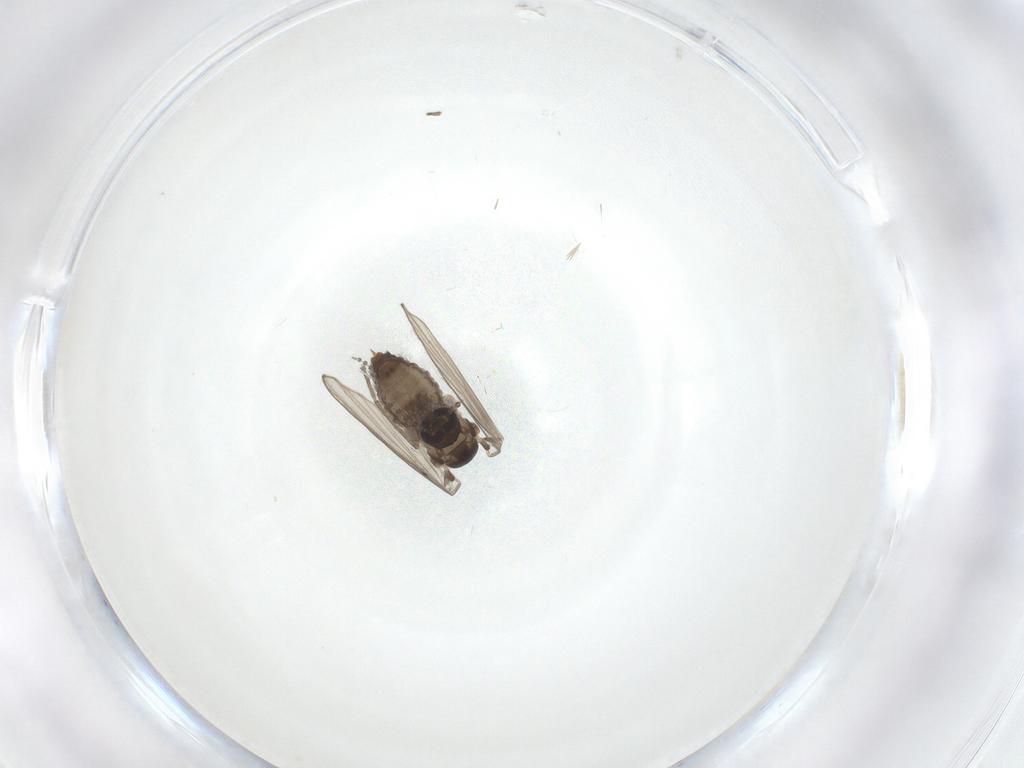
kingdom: Animalia
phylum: Arthropoda
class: Insecta
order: Diptera
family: Psychodidae
